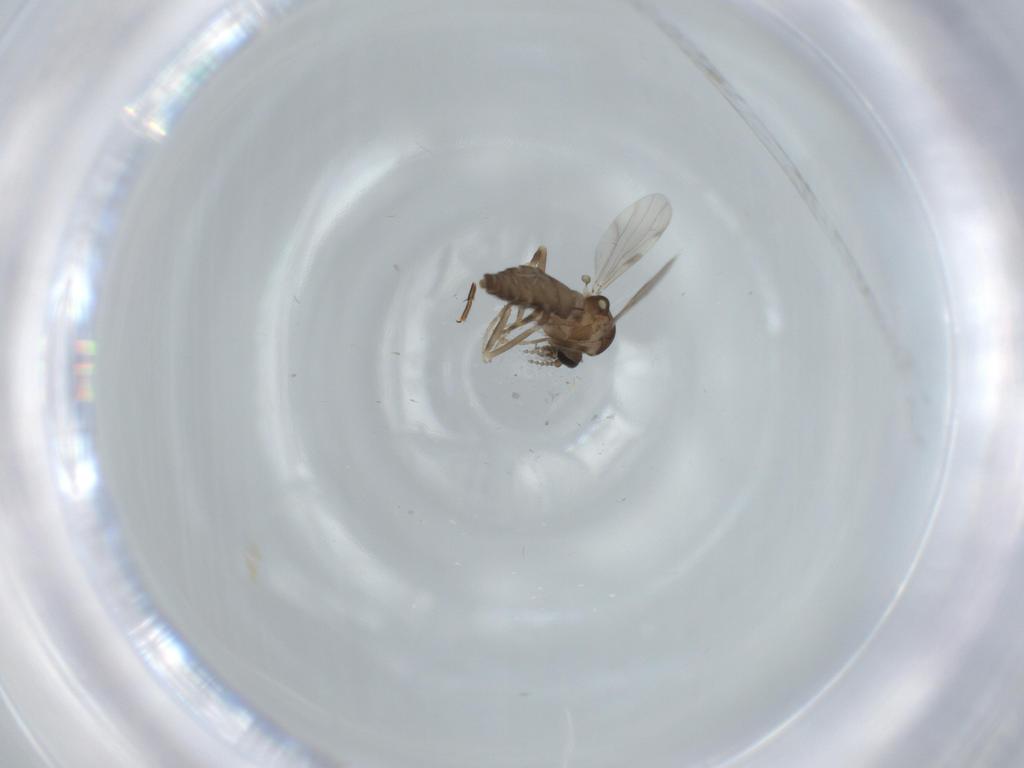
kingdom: Animalia
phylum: Arthropoda
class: Insecta
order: Diptera
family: Ceratopogonidae
